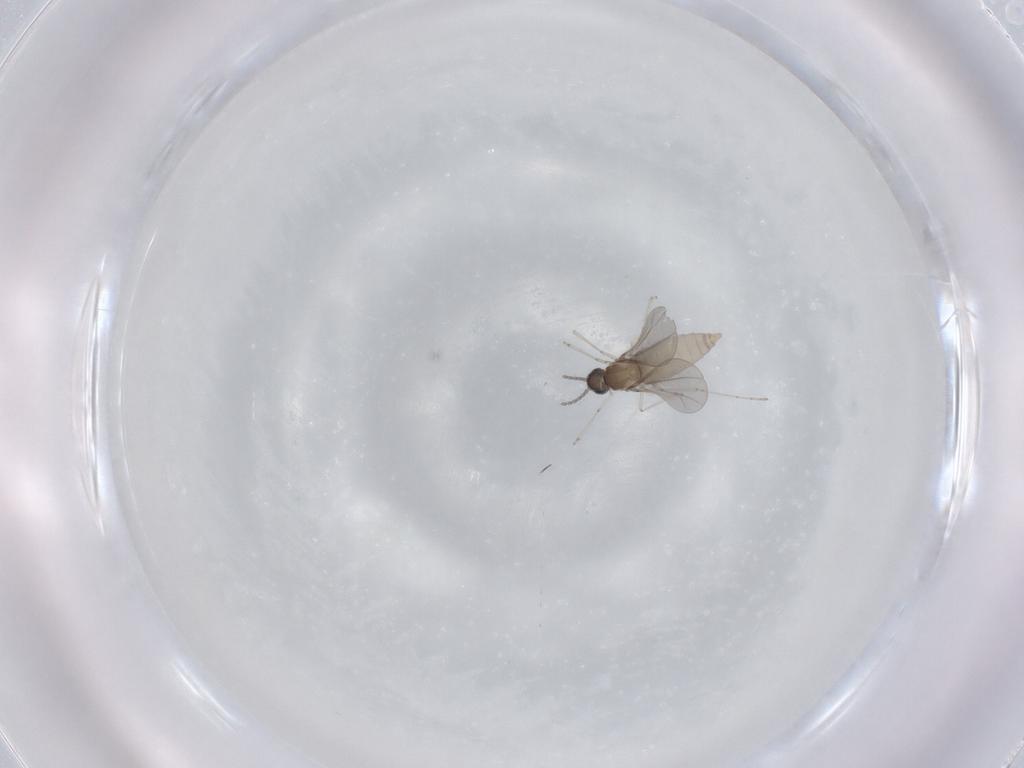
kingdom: Animalia
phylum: Arthropoda
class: Insecta
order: Diptera
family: Cecidomyiidae
